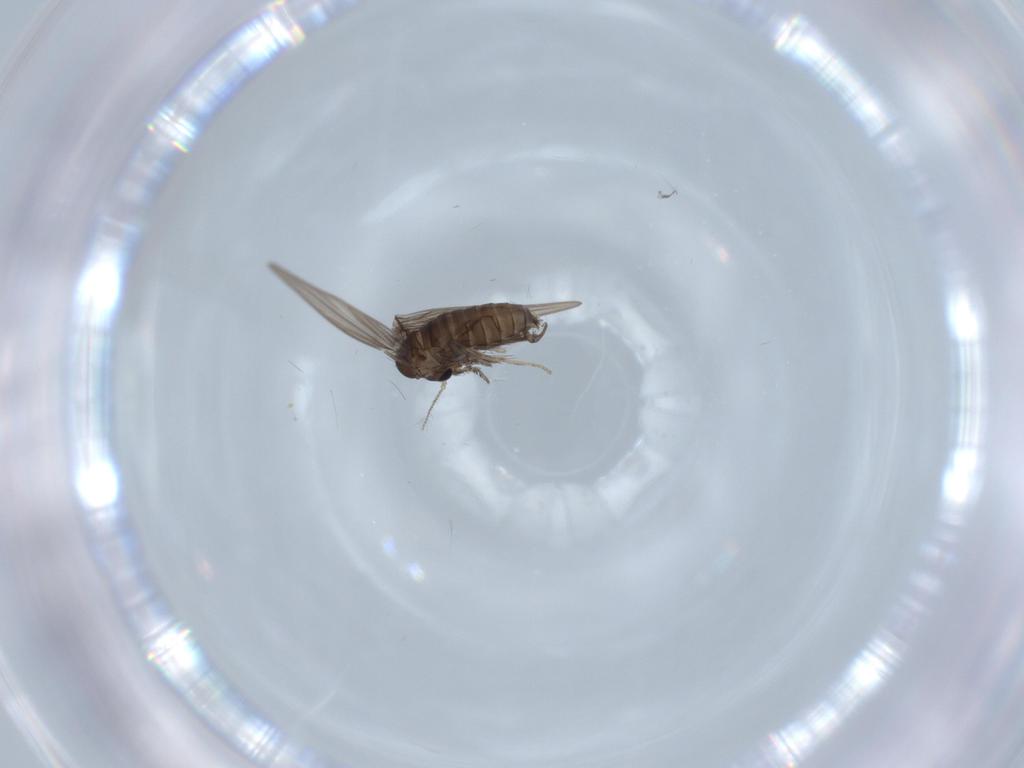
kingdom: Animalia
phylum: Arthropoda
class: Insecta
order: Diptera
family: Psychodidae
